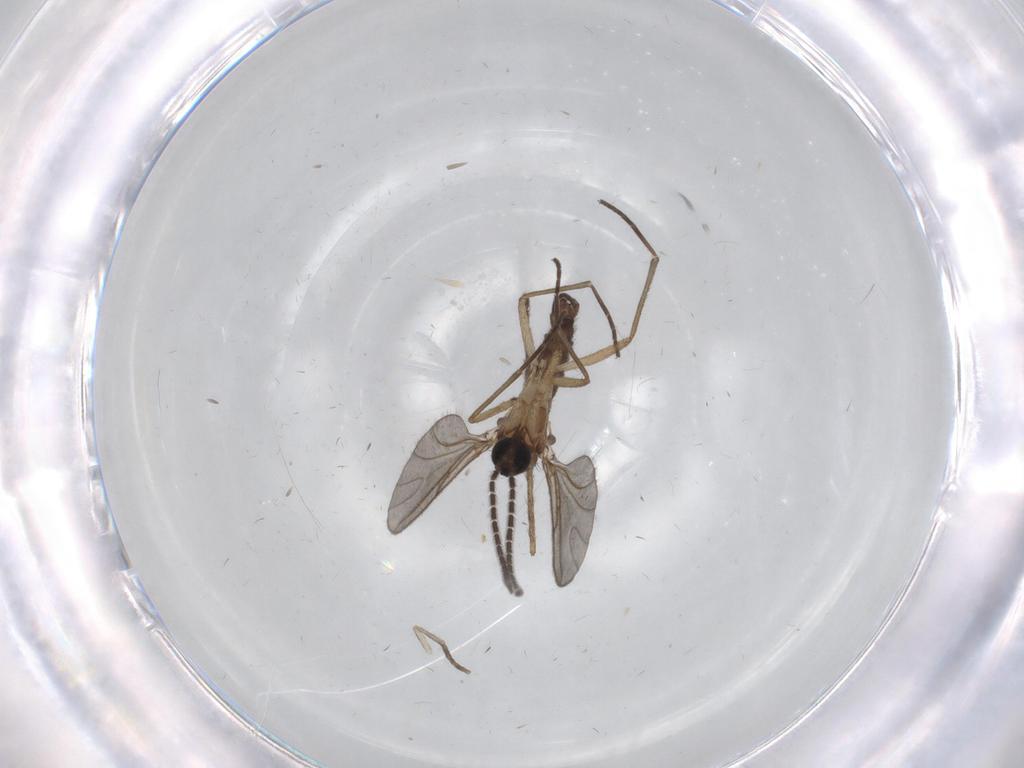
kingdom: Animalia
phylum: Arthropoda
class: Insecta
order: Diptera
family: Sciaridae
